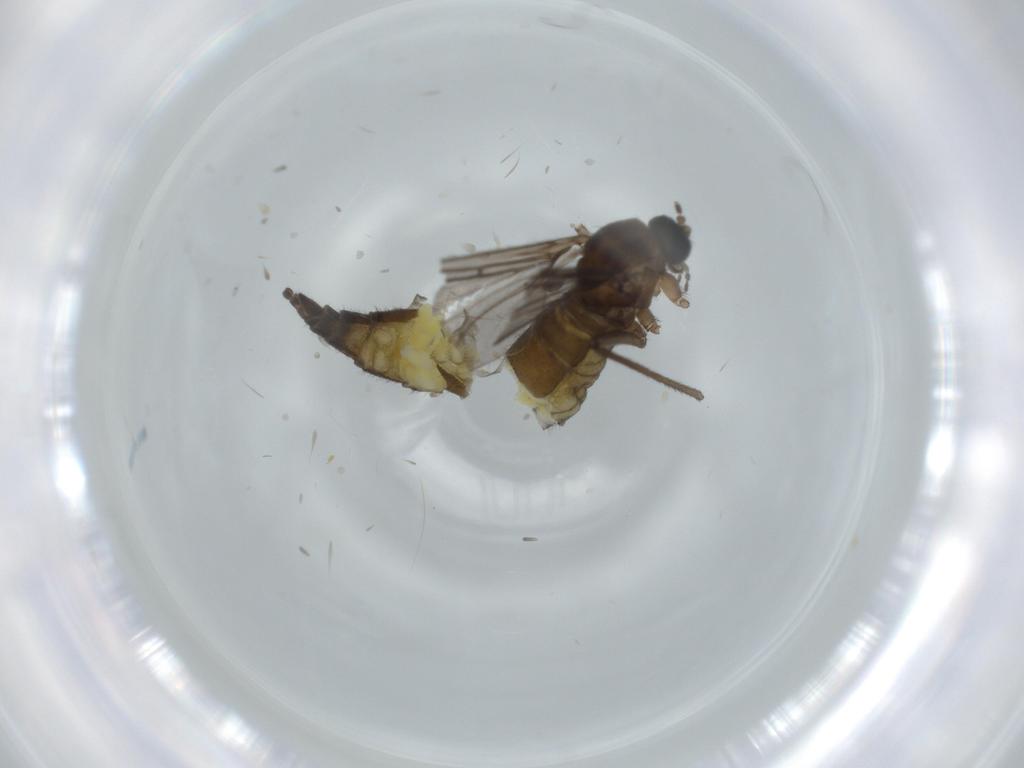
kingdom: Animalia
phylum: Arthropoda
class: Insecta
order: Diptera
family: Sciaridae
